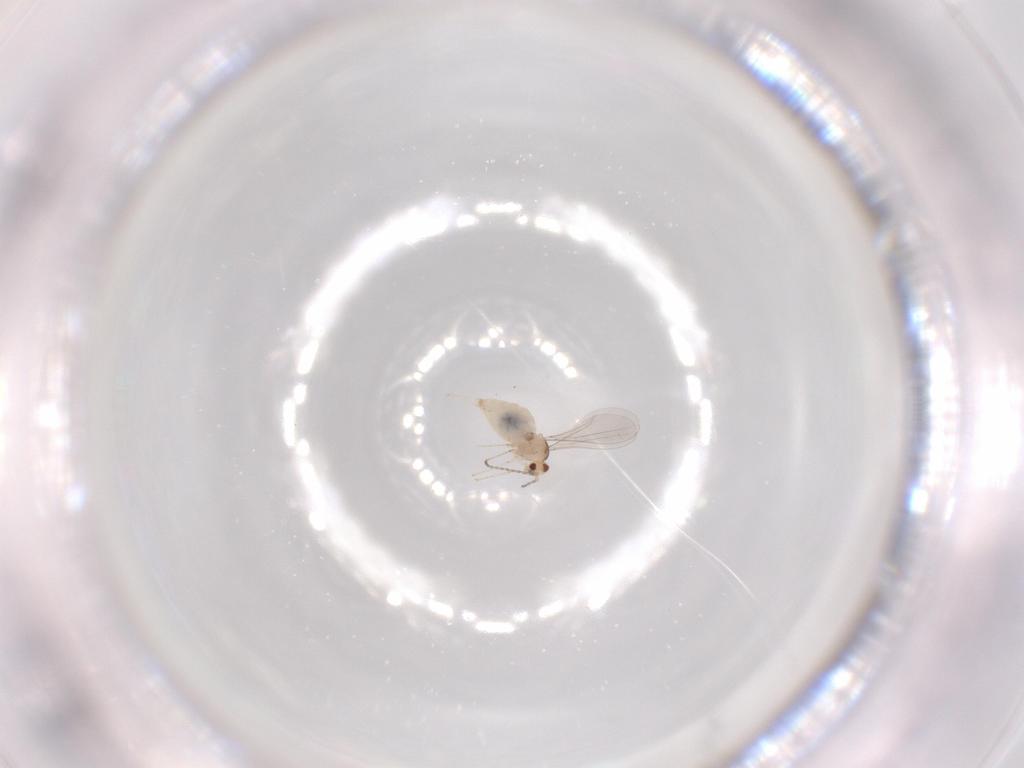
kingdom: Animalia
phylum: Arthropoda
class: Insecta
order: Diptera
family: Cecidomyiidae
